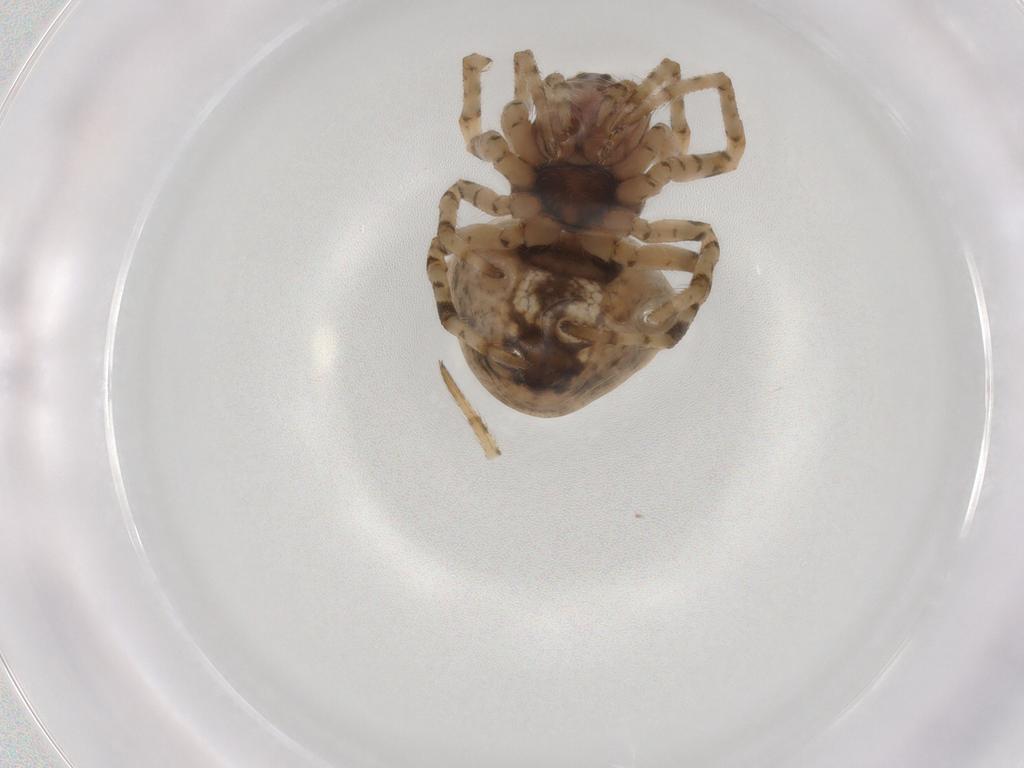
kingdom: Animalia
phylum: Arthropoda
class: Arachnida
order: Araneae
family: Araneidae
